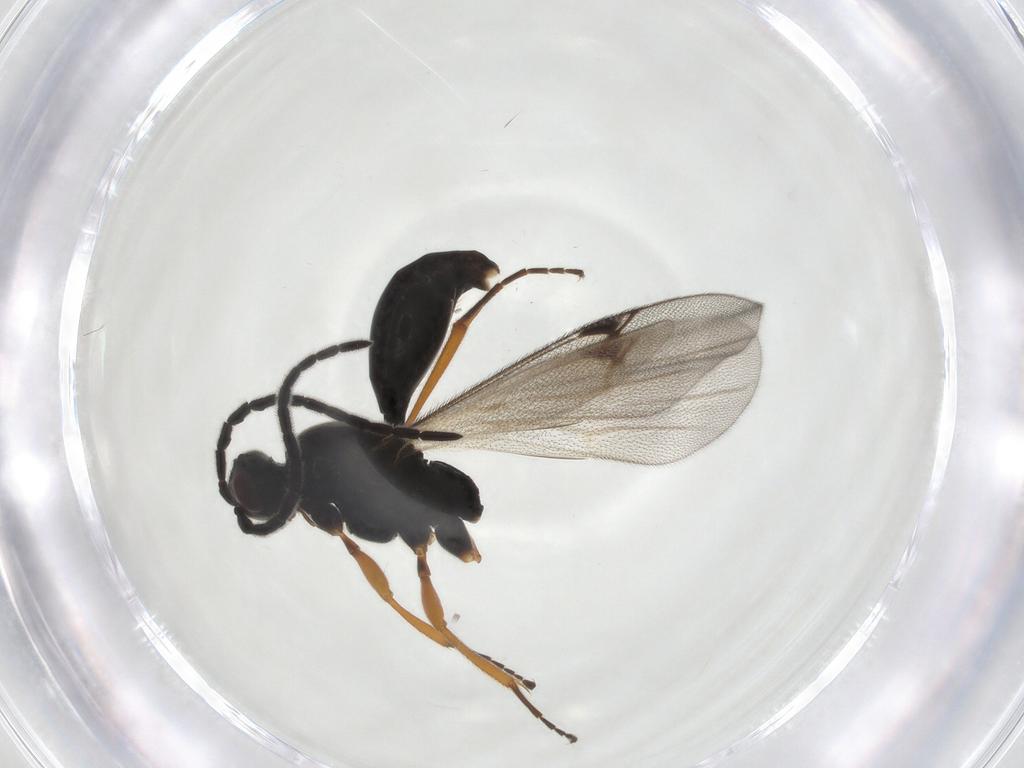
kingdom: Animalia
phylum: Arthropoda
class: Insecta
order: Hymenoptera
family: Proctotrupidae
